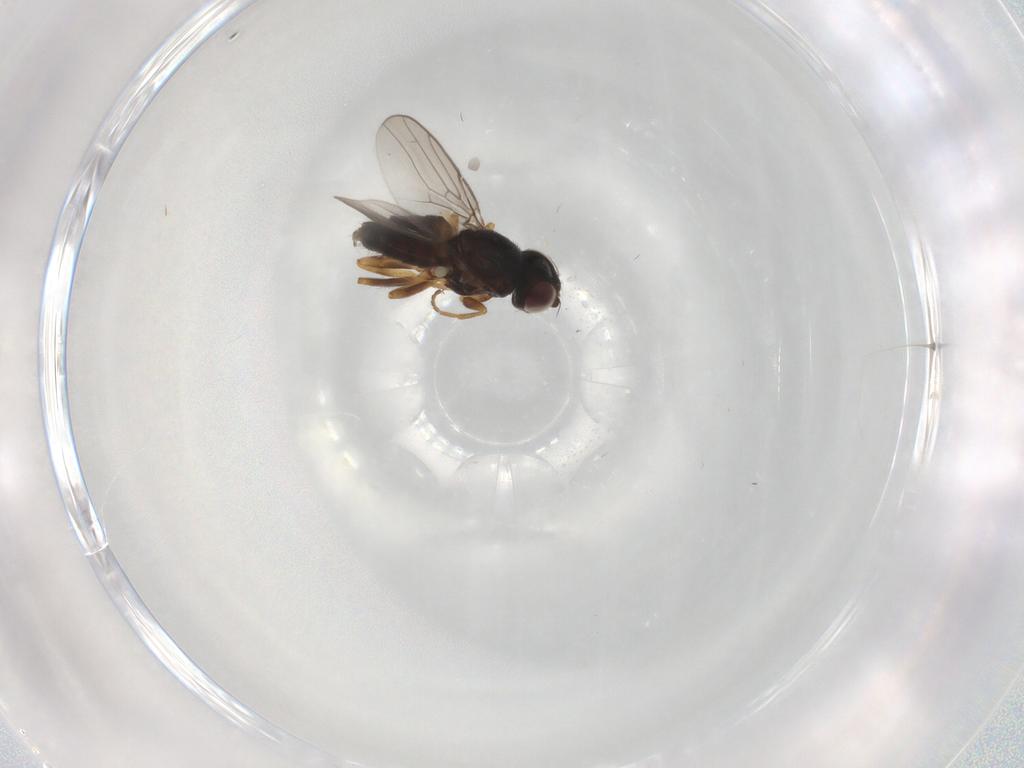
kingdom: Animalia
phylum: Arthropoda
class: Insecta
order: Diptera
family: Chloropidae
